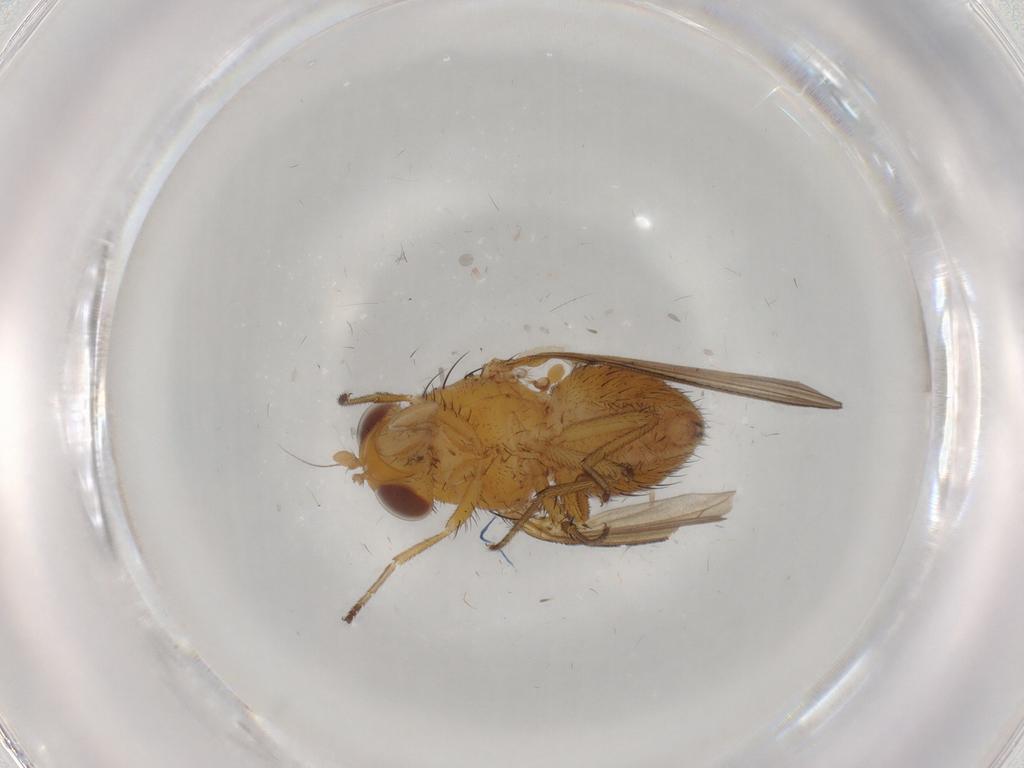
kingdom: Animalia
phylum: Arthropoda
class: Insecta
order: Diptera
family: Lauxaniidae
